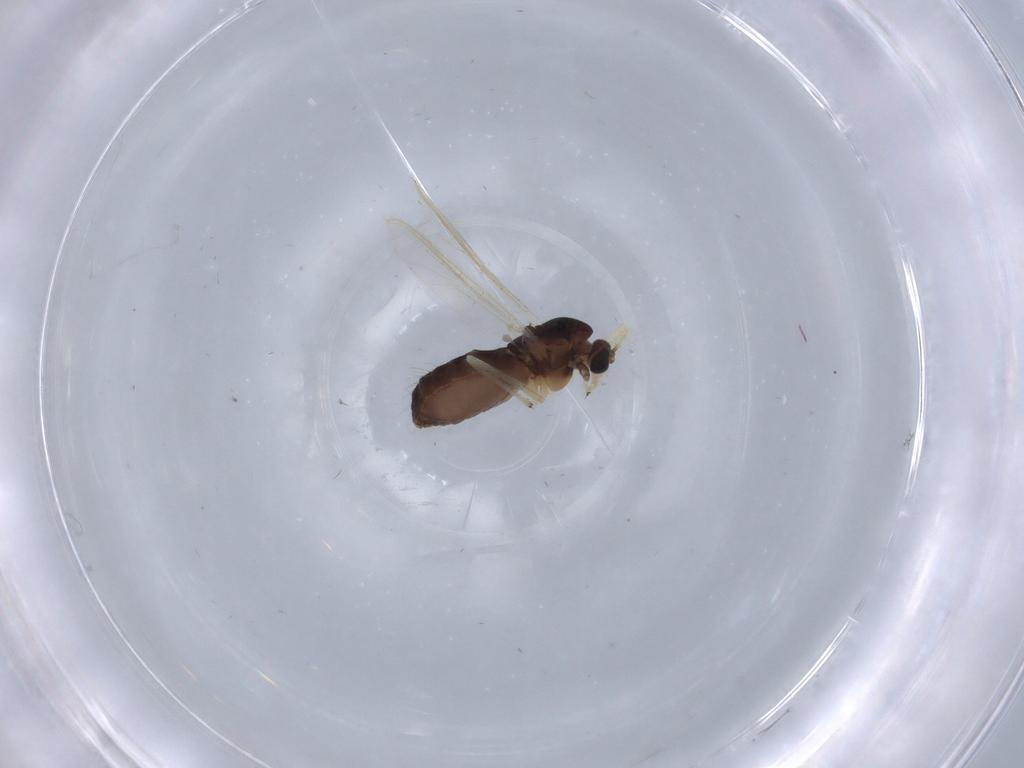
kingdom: Animalia
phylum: Arthropoda
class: Insecta
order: Diptera
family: Chironomidae
